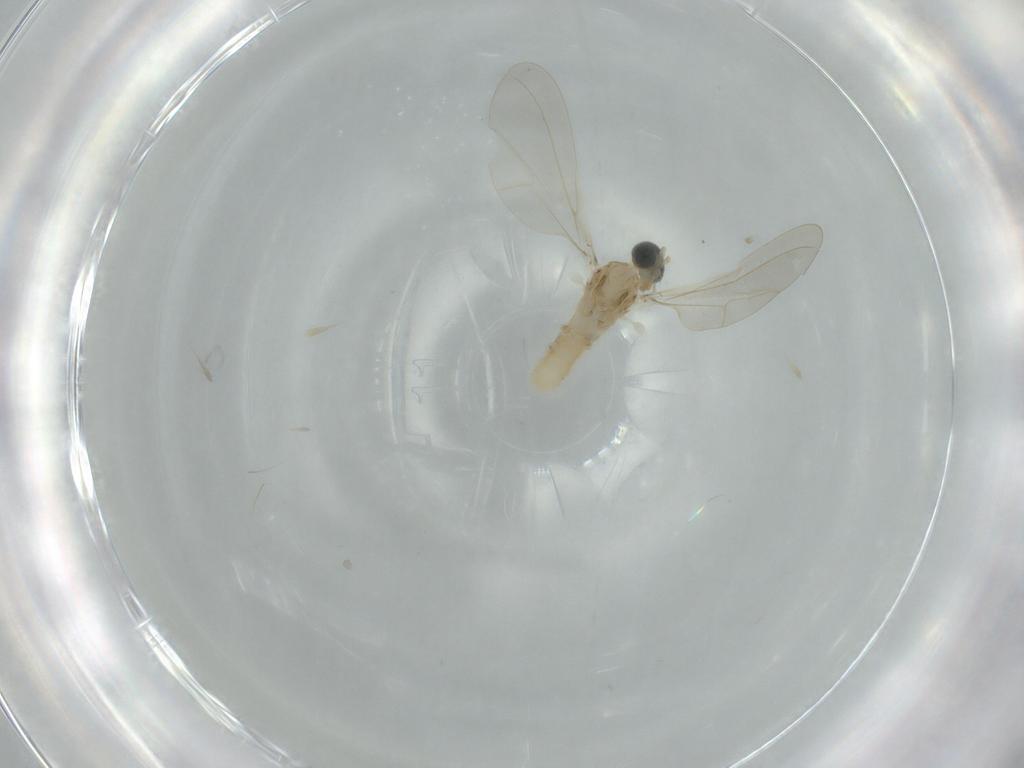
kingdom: Animalia
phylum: Arthropoda
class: Insecta
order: Diptera
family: Cecidomyiidae
